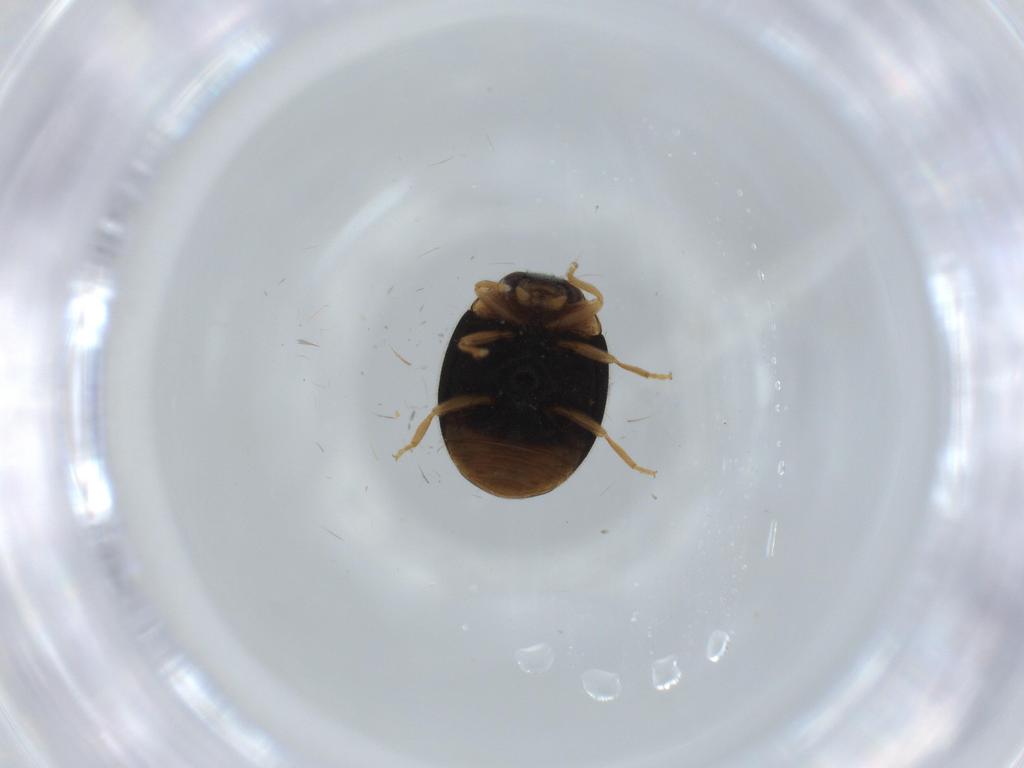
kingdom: Animalia
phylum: Arthropoda
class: Insecta
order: Coleoptera
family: Coccinellidae
